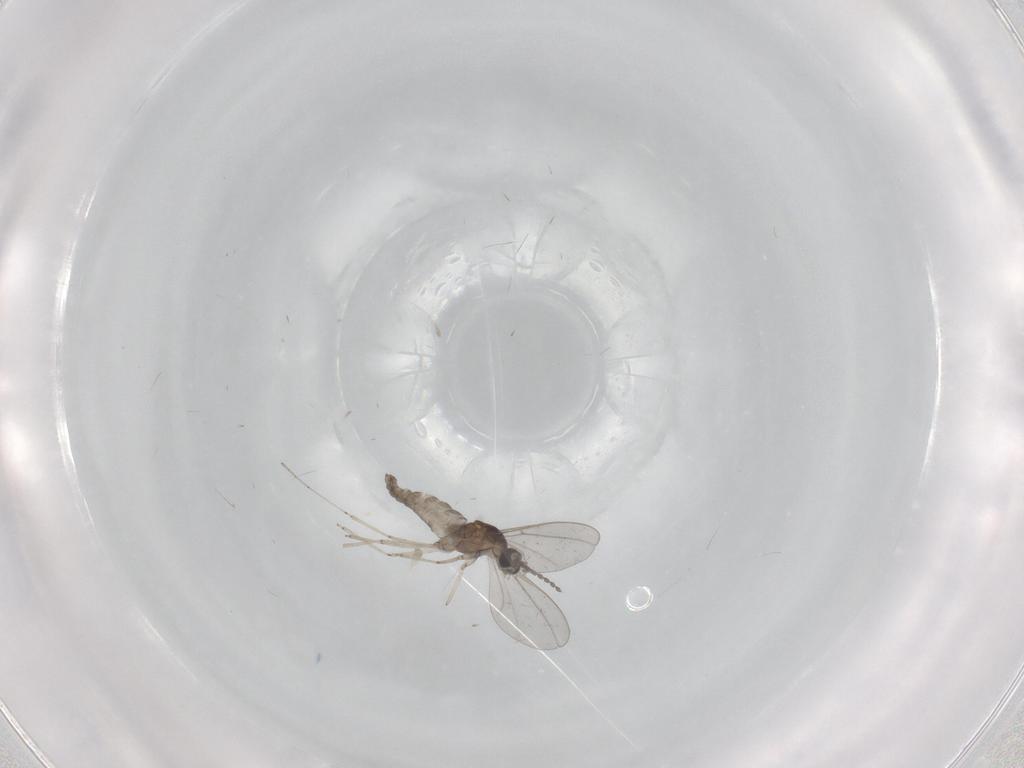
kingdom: Animalia
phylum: Arthropoda
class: Insecta
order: Diptera
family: Cecidomyiidae
